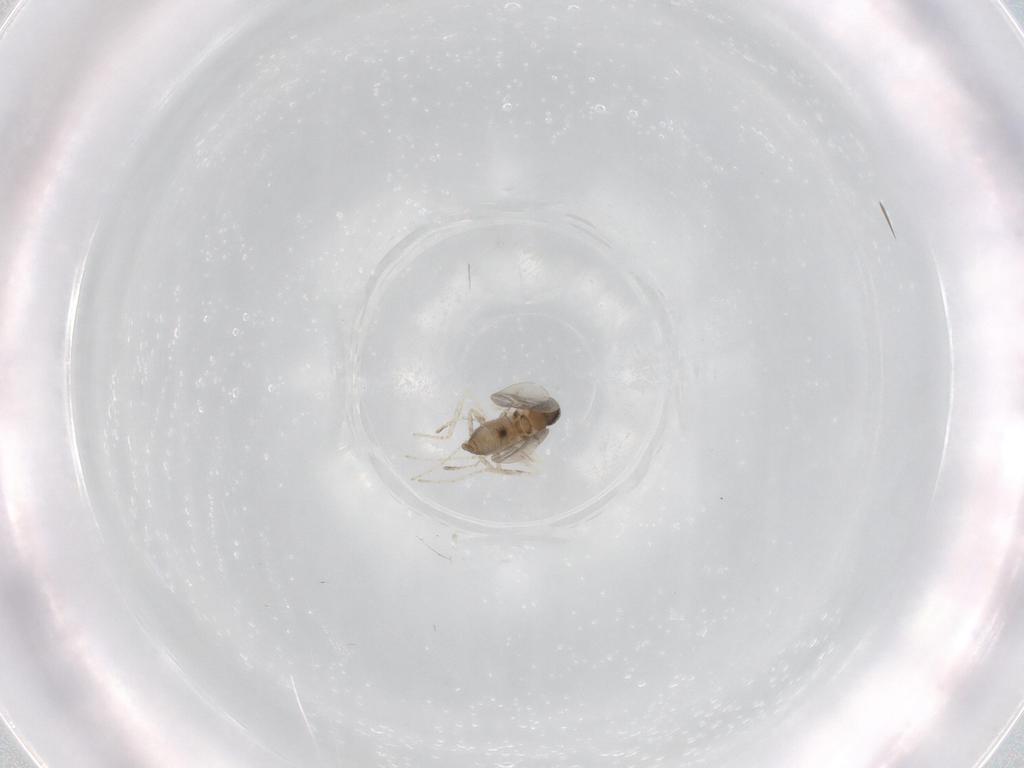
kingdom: Animalia
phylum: Arthropoda
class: Insecta
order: Diptera
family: Cecidomyiidae
